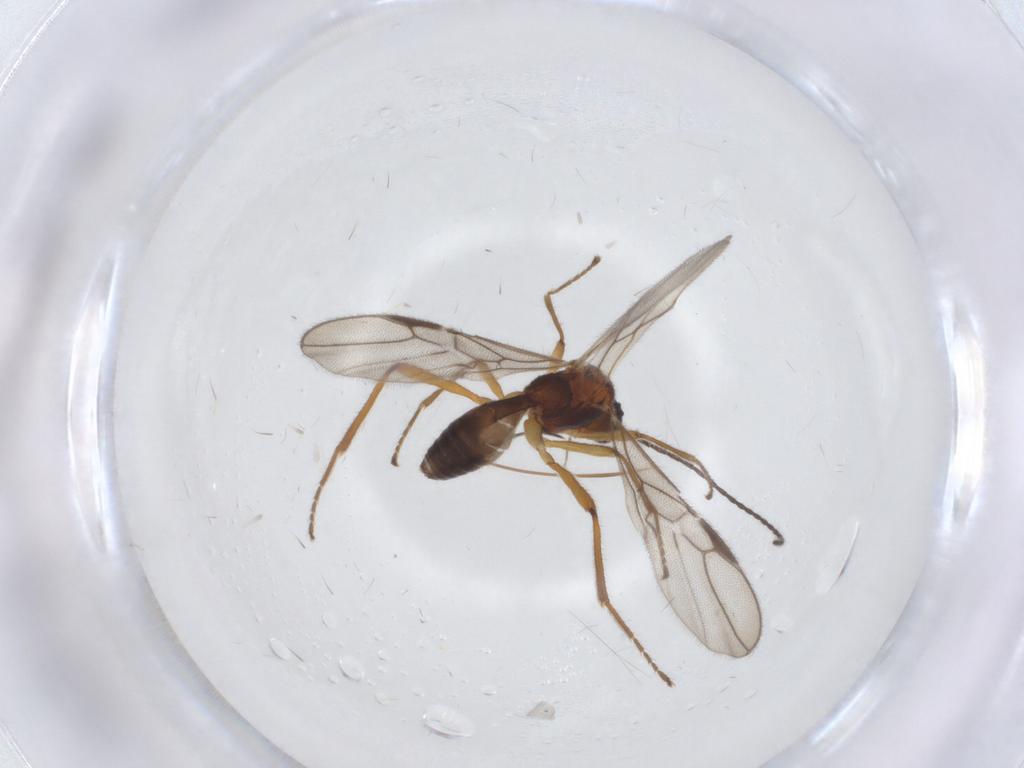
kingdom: Animalia
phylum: Arthropoda
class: Insecta
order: Hymenoptera
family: Braconidae
